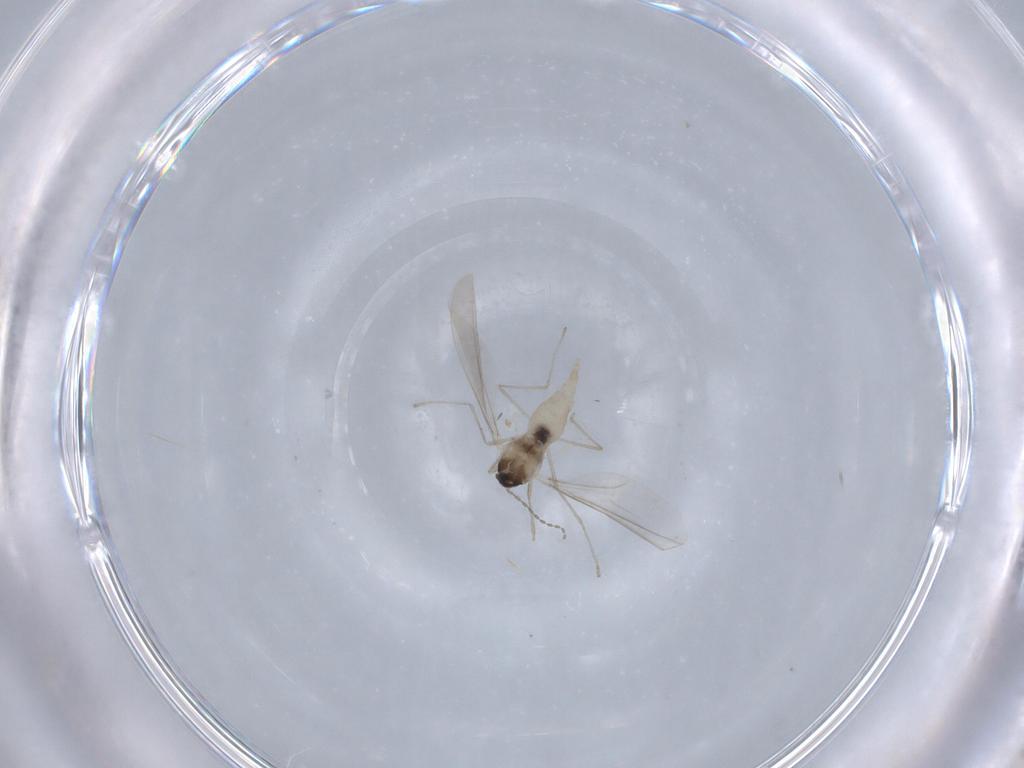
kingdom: Animalia
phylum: Arthropoda
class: Insecta
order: Diptera
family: Cecidomyiidae
